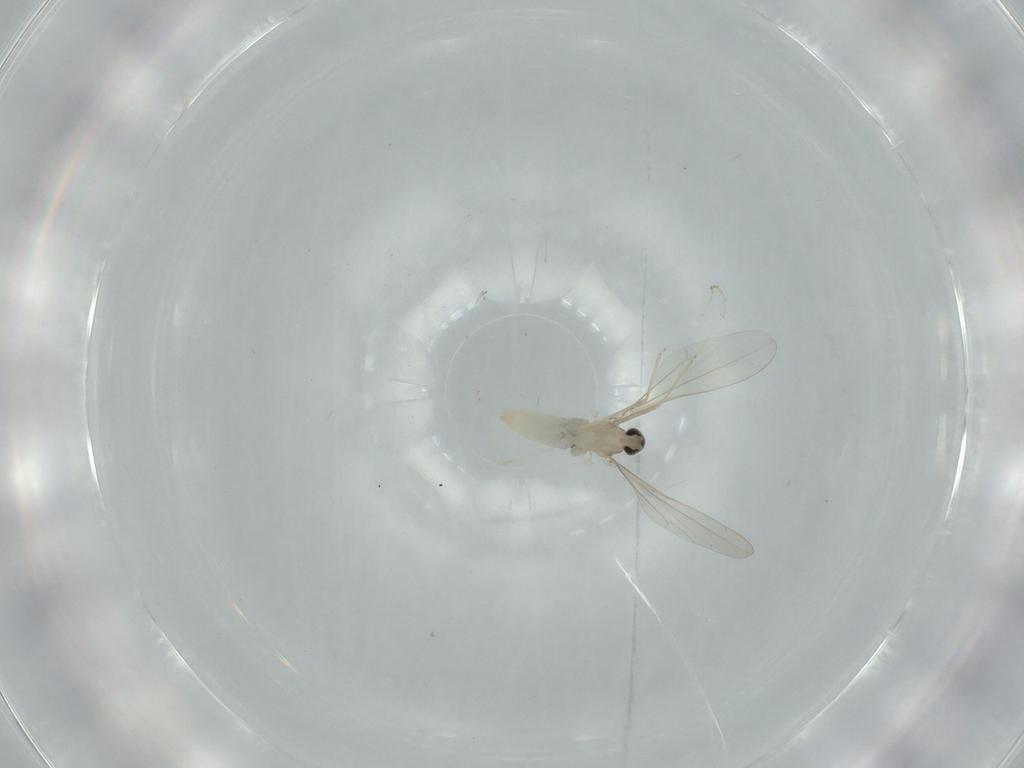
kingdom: Animalia
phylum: Arthropoda
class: Insecta
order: Diptera
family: Cecidomyiidae
